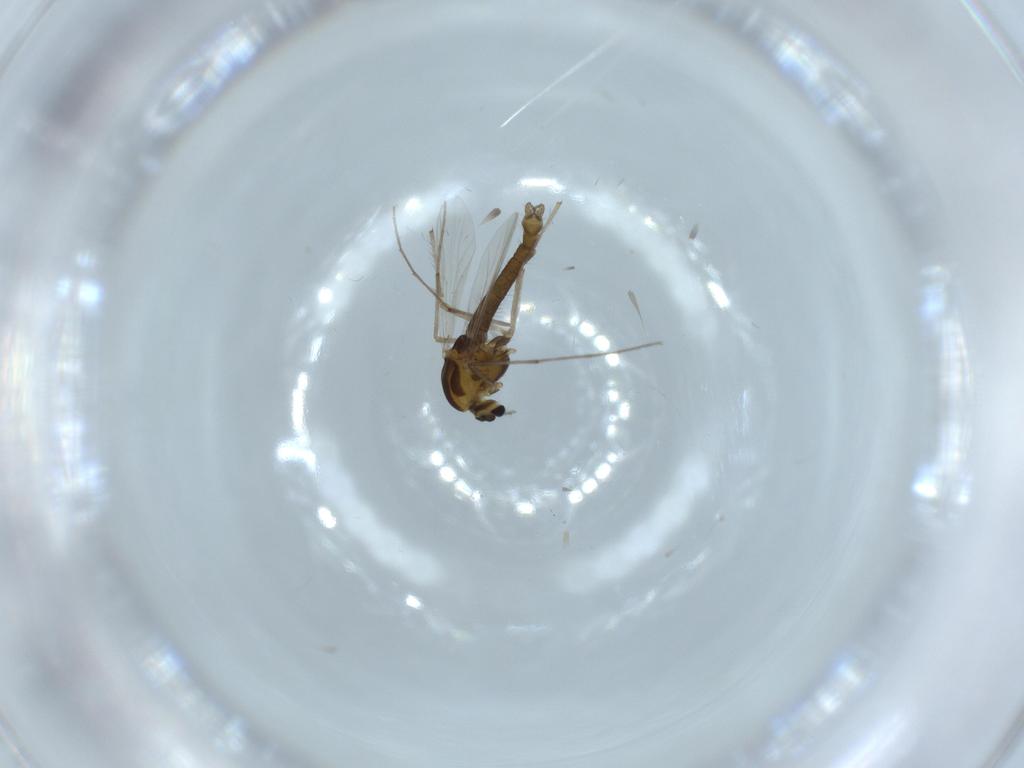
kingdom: Animalia
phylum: Arthropoda
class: Insecta
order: Diptera
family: Chironomidae
